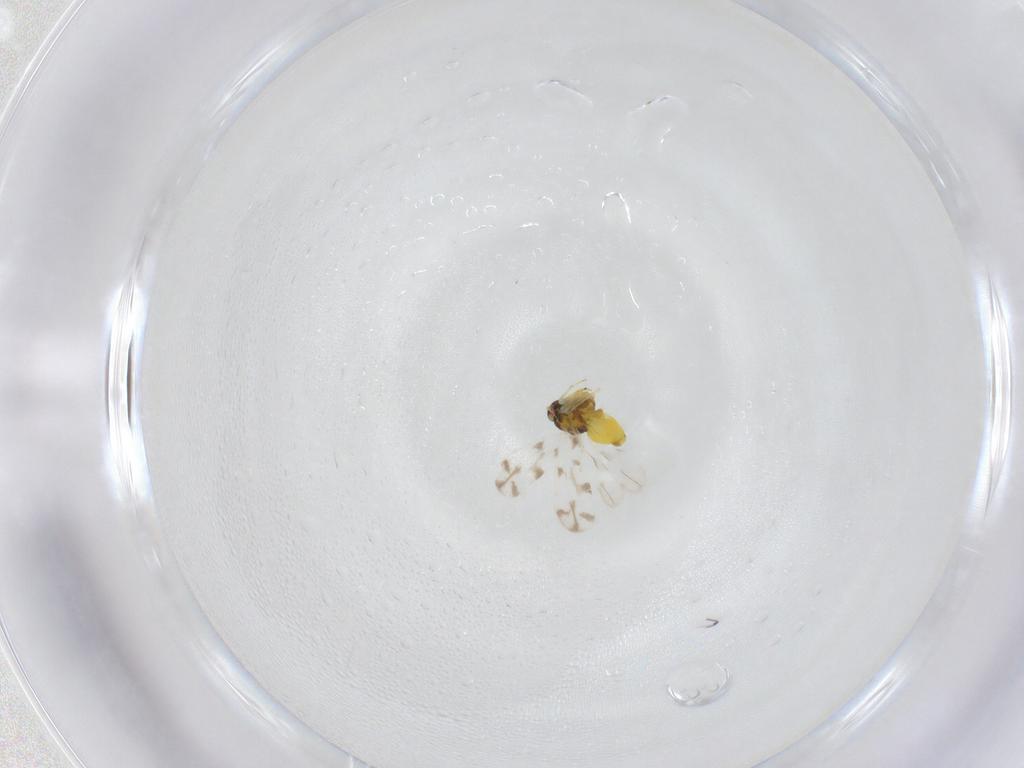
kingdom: Animalia
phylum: Arthropoda
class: Insecta
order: Hemiptera
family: Aleyrodidae
